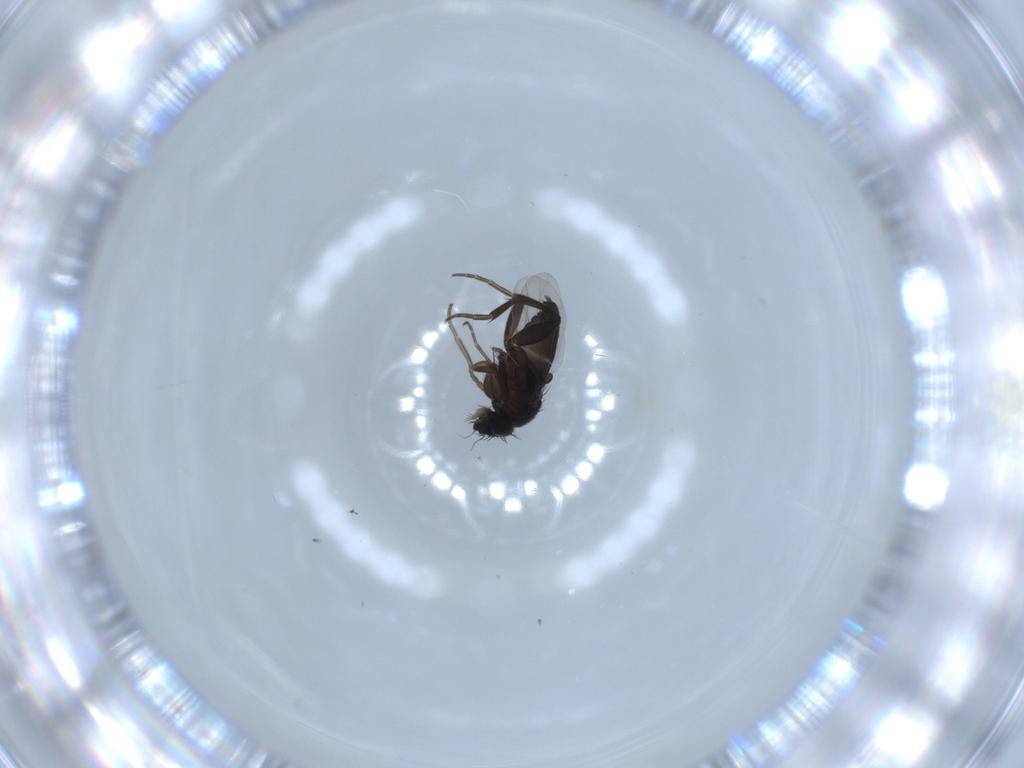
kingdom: Animalia
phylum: Arthropoda
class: Insecta
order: Diptera
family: Phoridae
